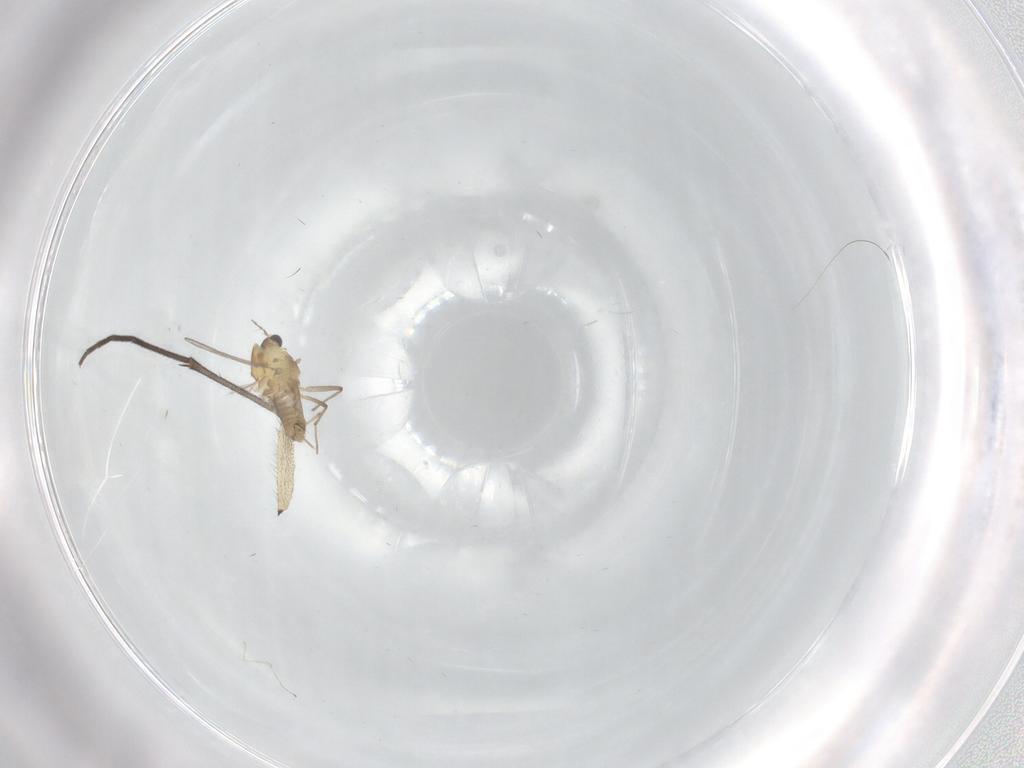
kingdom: Animalia
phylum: Arthropoda
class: Insecta
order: Diptera
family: Chironomidae
